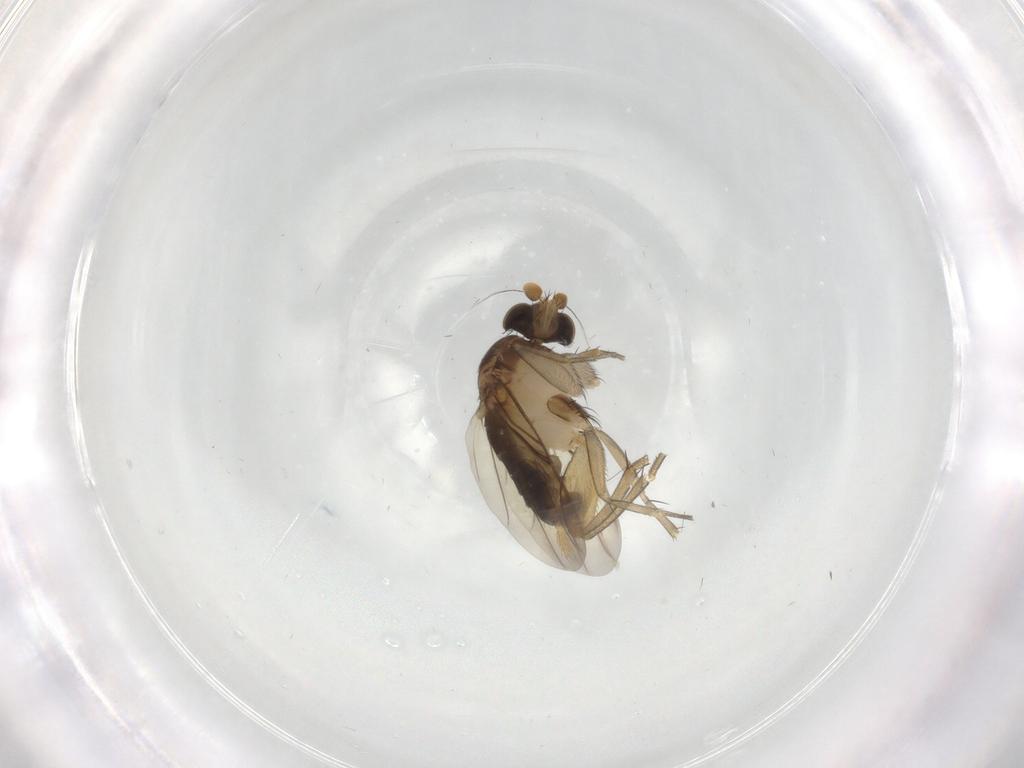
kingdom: Animalia
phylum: Arthropoda
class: Insecta
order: Diptera
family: Phoridae
